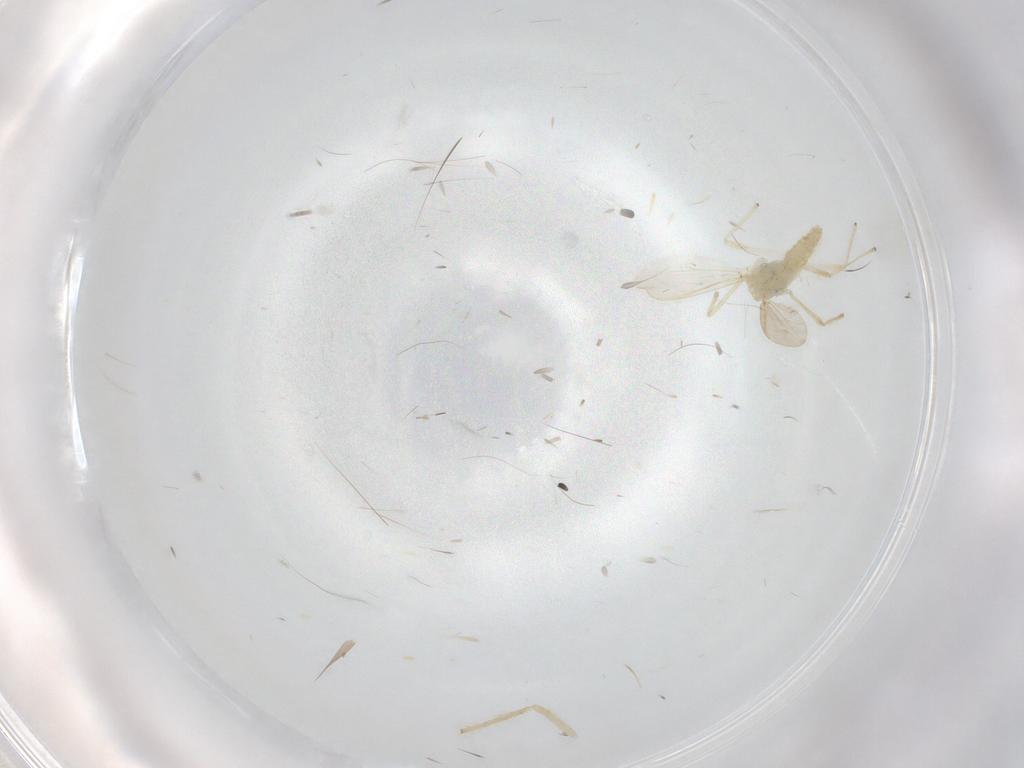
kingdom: Animalia
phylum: Arthropoda
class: Insecta
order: Diptera
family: Chironomidae
